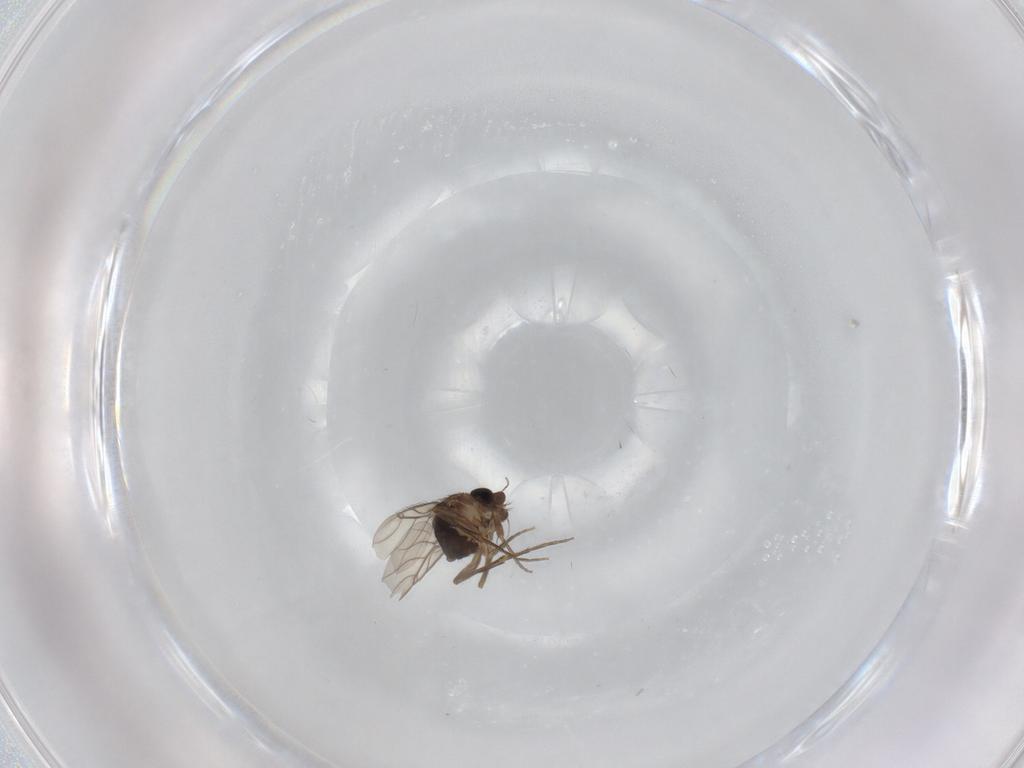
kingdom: Animalia
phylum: Arthropoda
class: Insecta
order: Diptera
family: Phoridae
